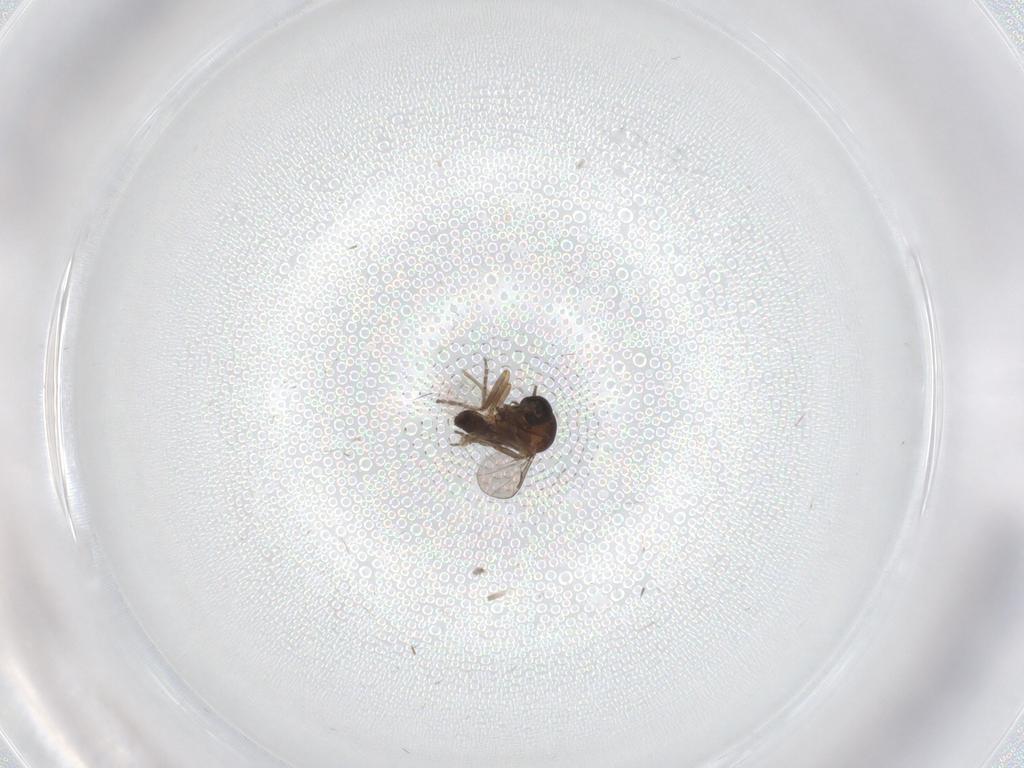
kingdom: Animalia
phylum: Arthropoda
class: Insecta
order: Diptera
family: Ceratopogonidae
